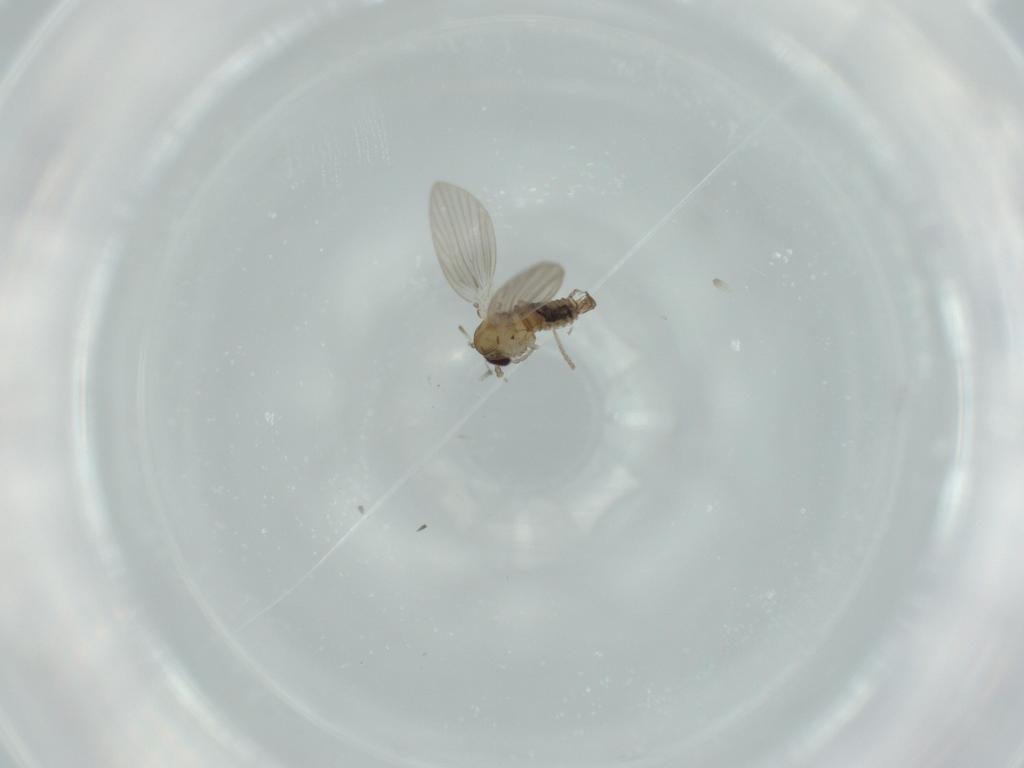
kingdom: Animalia
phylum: Arthropoda
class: Insecta
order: Diptera
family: Psychodidae
